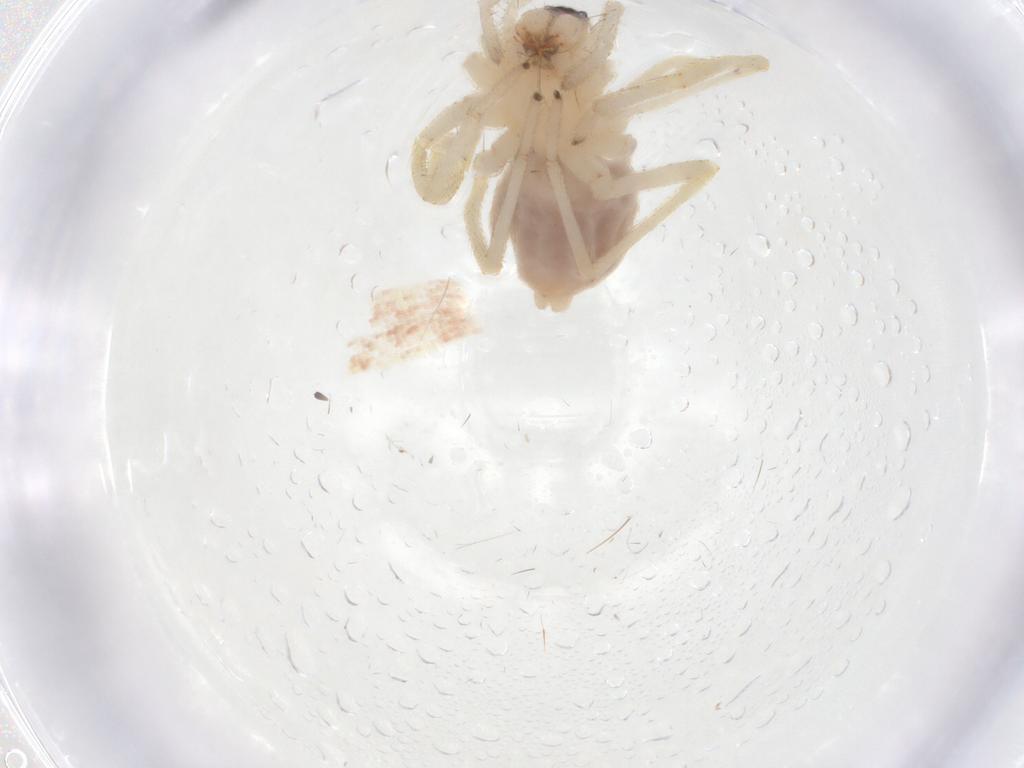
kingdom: Animalia
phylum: Arthropoda
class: Arachnida
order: Araneae
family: Corinnidae
